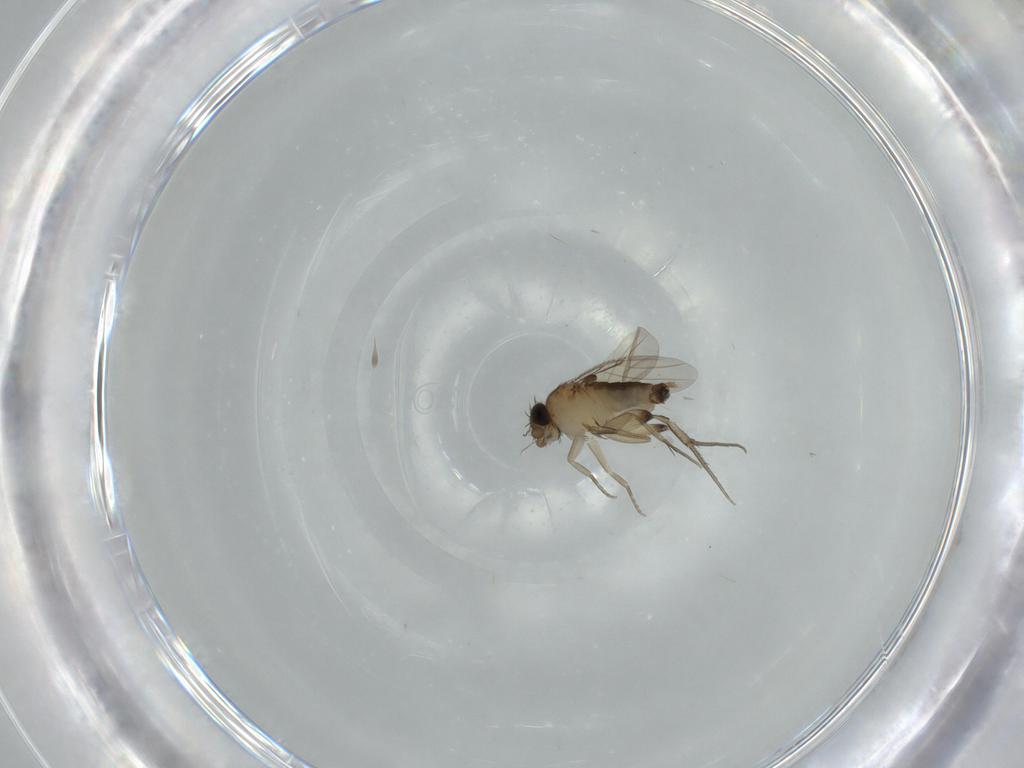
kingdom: Animalia
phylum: Arthropoda
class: Insecta
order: Diptera
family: Phoridae
